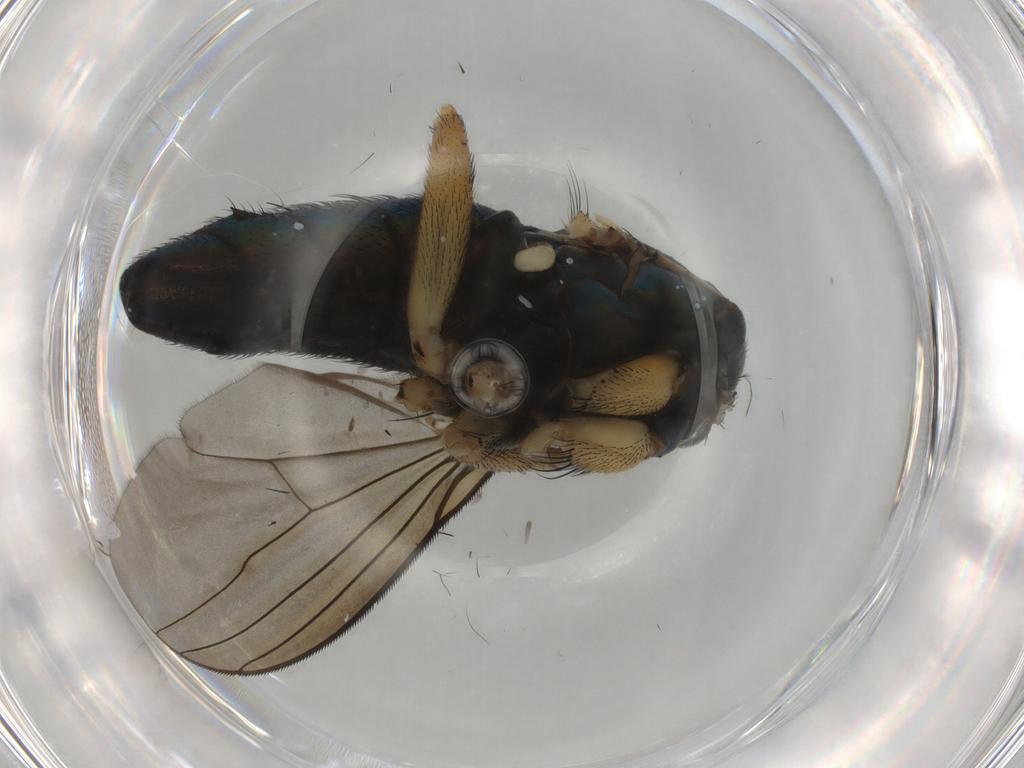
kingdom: Animalia
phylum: Arthropoda
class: Insecta
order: Diptera
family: Dolichopodidae
